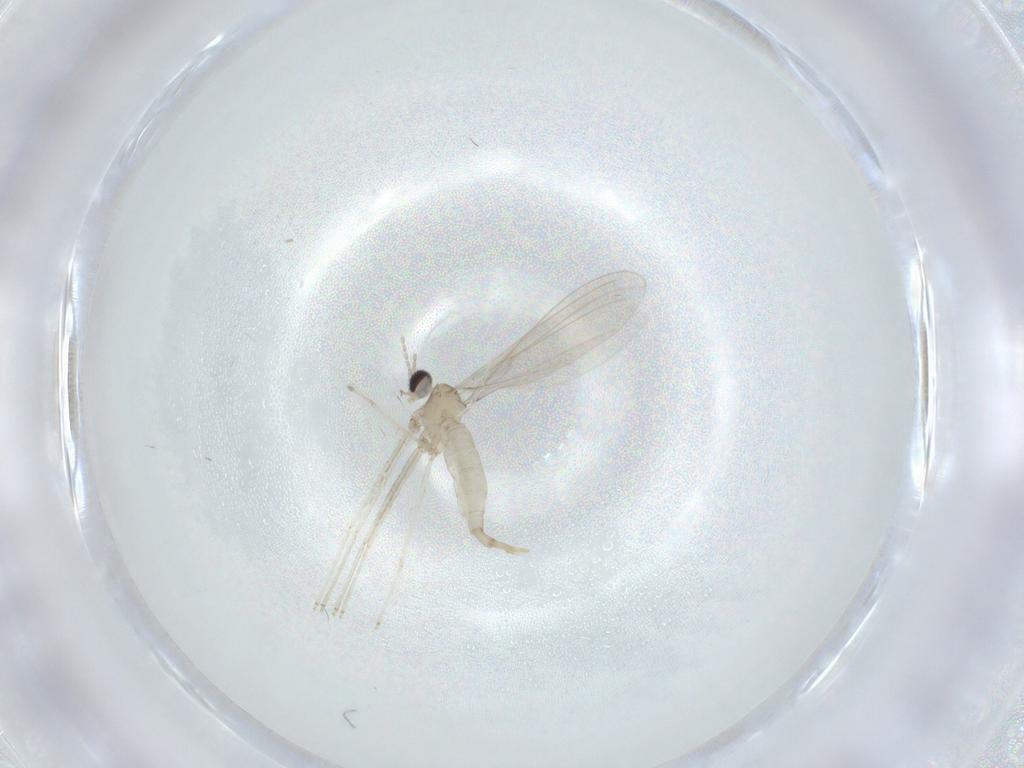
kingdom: Animalia
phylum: Arthropoda
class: Insecta
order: Diptera
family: Cecidomyiidae
